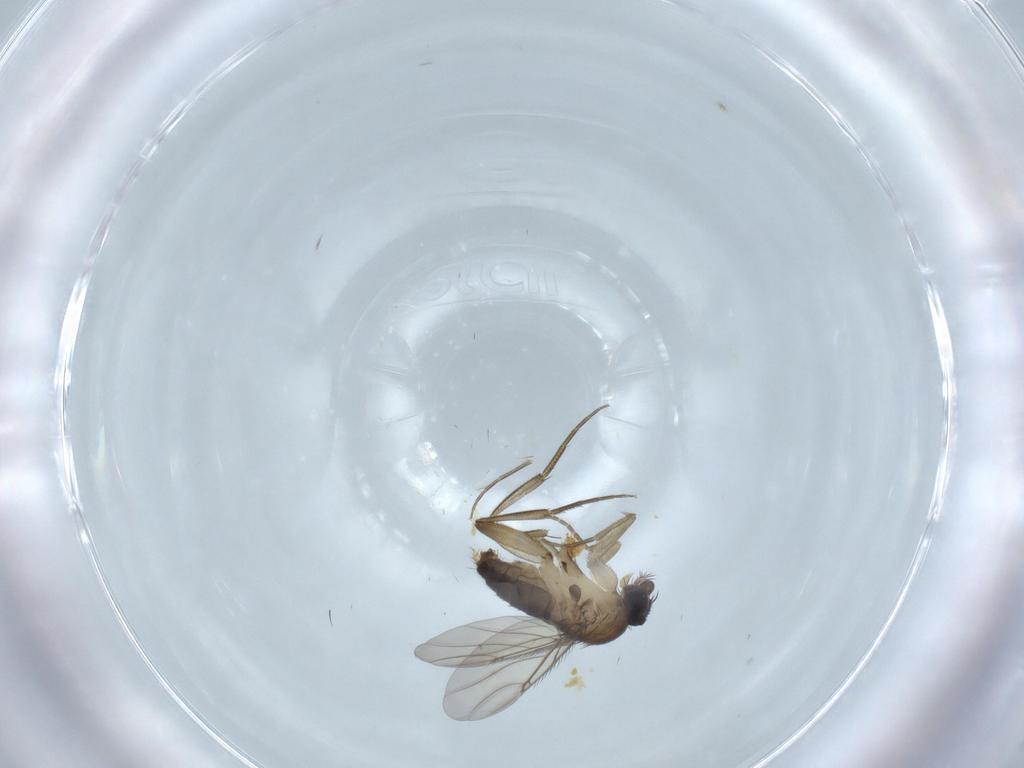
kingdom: Animalia
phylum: Arthropoda
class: Insecta
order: Diptera
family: Phoridae
